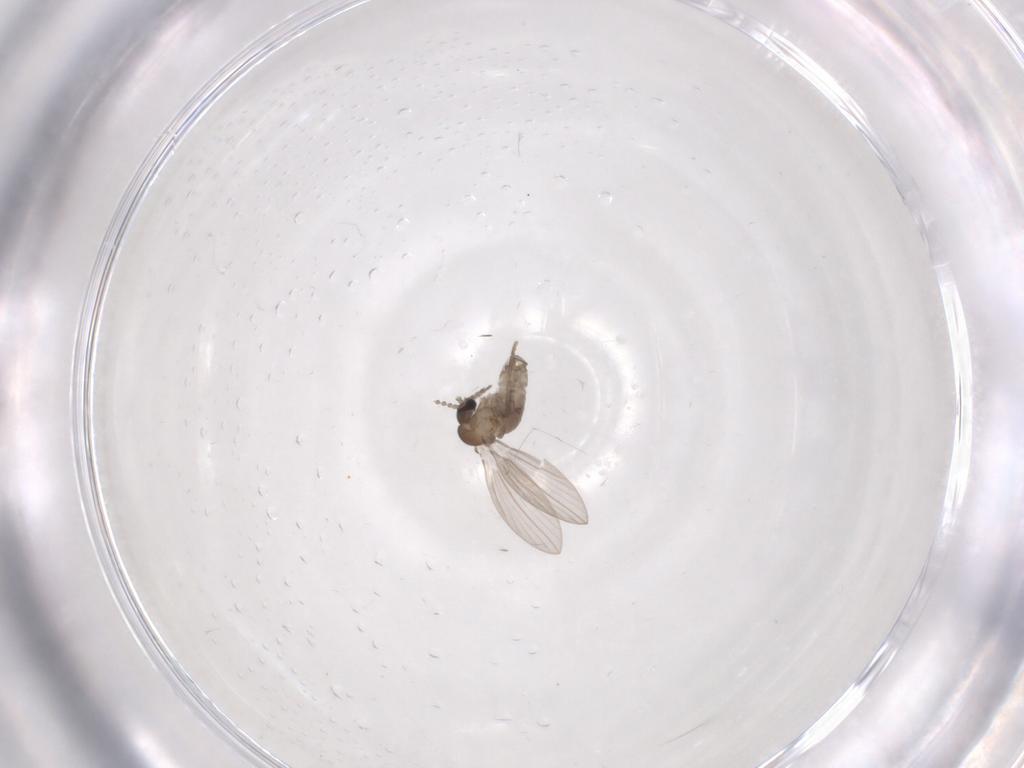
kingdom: Animalia
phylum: Arthropoda
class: Insecta
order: Diptera
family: Psychodidae
